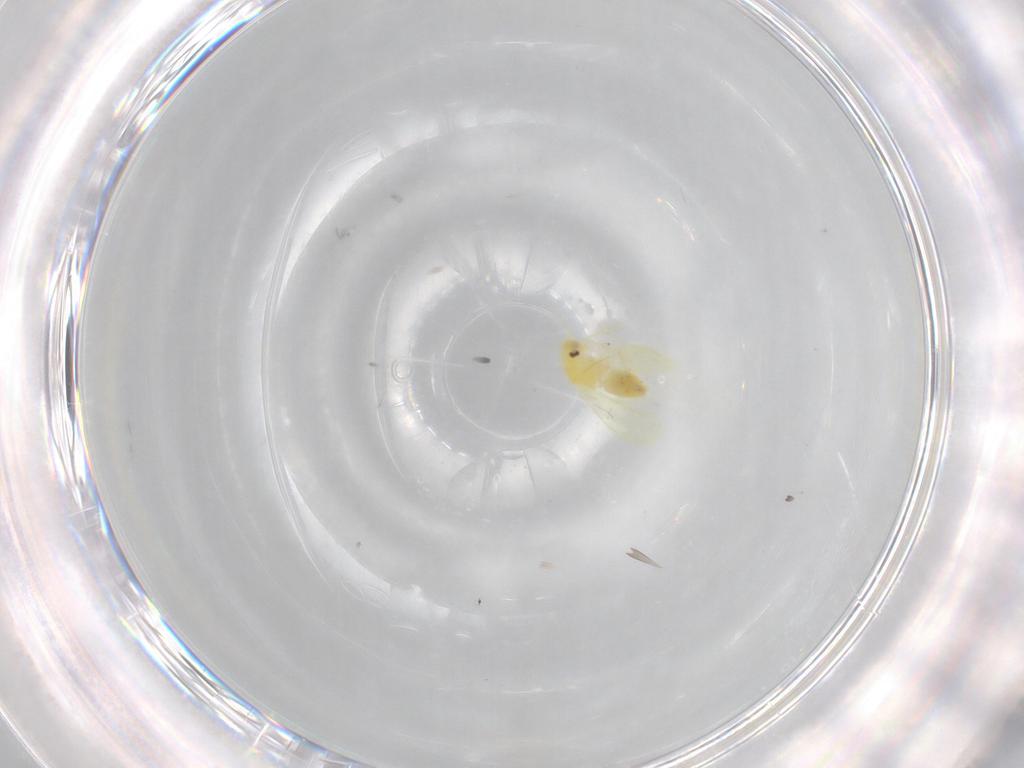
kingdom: Animalia
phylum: Arthropoda
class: Insecta
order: Hemiptera
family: Aleyrodidae
